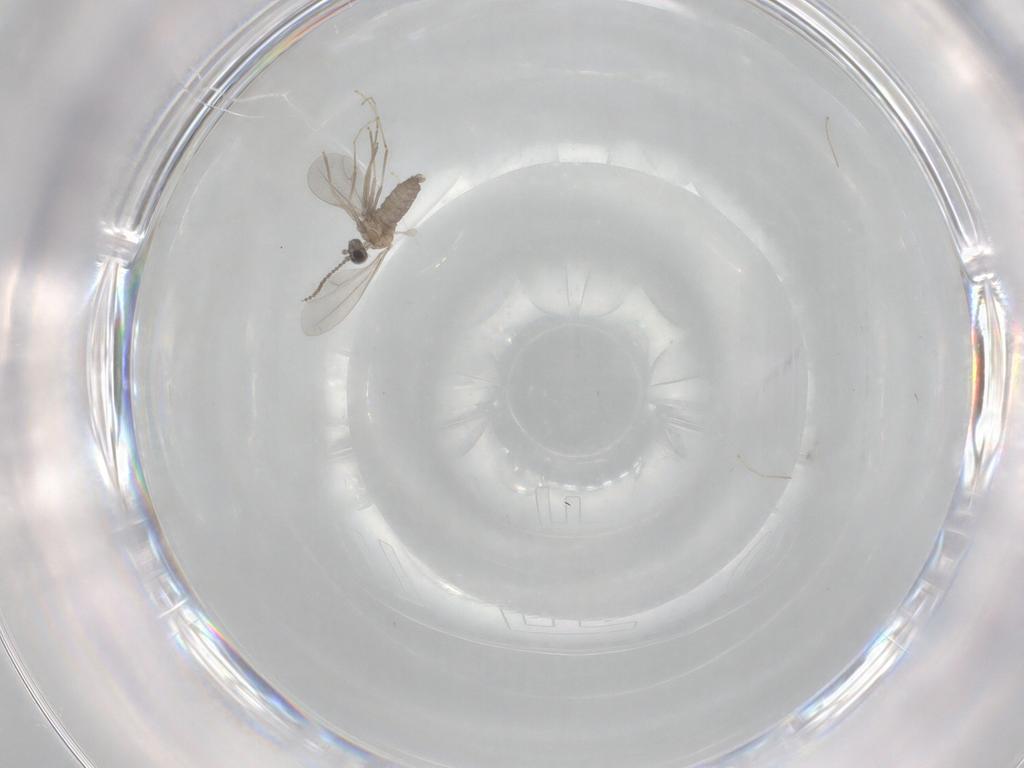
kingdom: Animalia
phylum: Arthropoda
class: Insecta
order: Diptera
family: Cecidomyiidae
